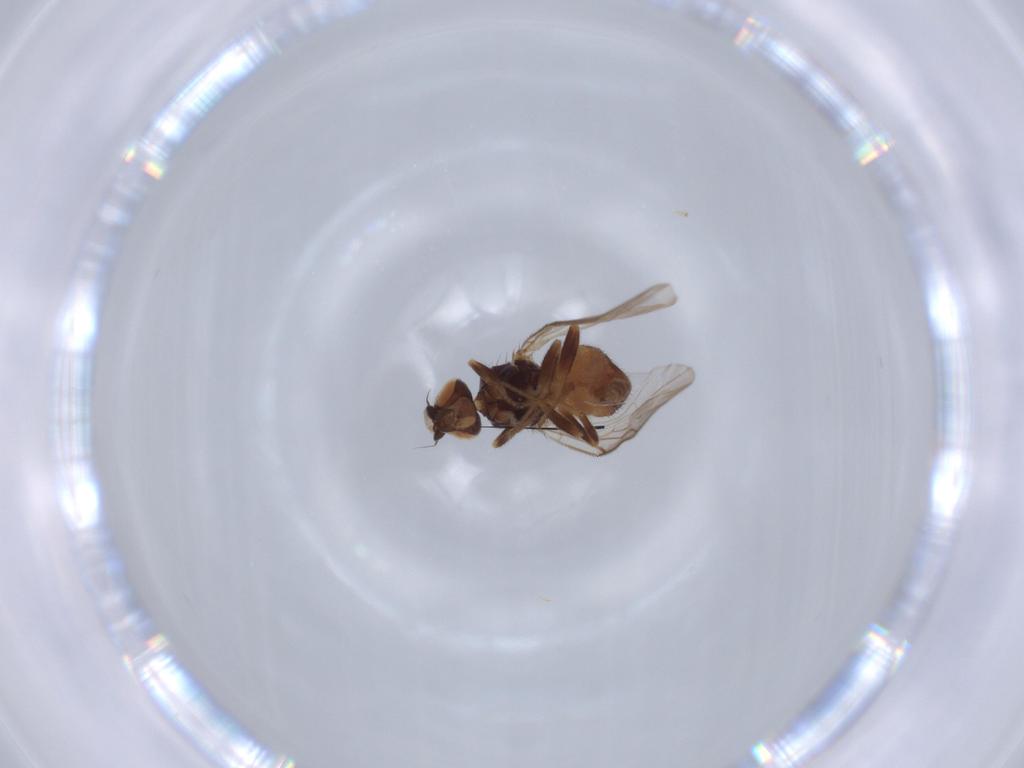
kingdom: Animalia
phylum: Arthropoda
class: Insecta
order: Diptera
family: Chloropidae
